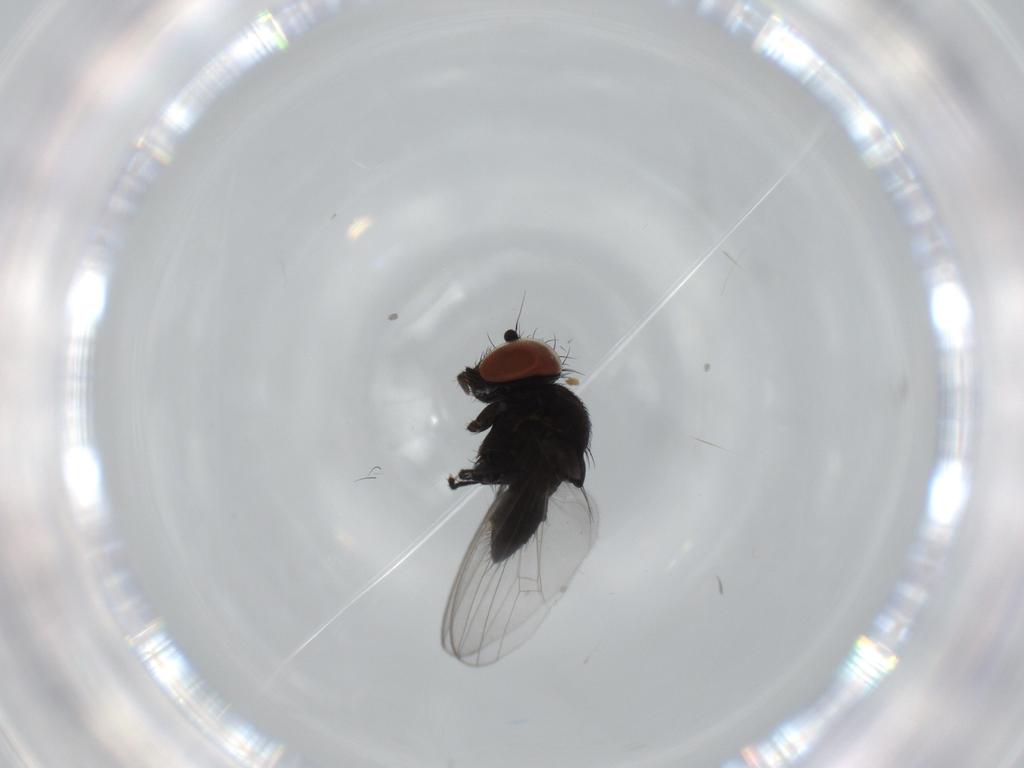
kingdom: Animalia
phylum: Arthropoda
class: Insecta
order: Diptera
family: Milichiidae
